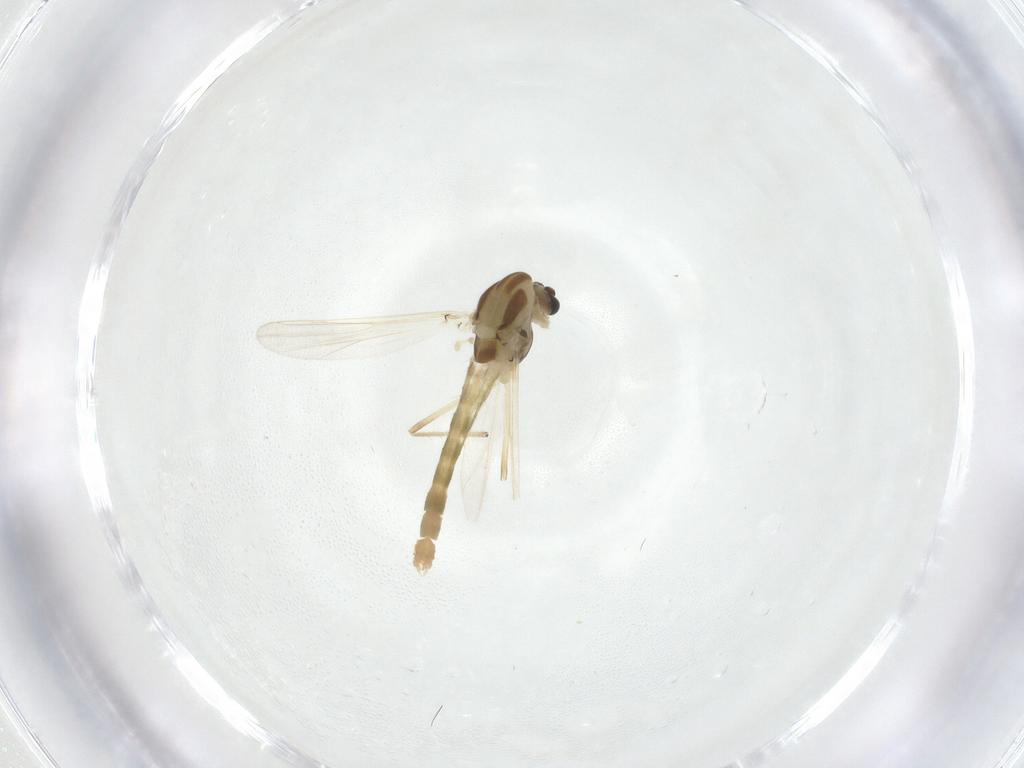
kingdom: Animalia
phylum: Arthropoda
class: Insecta
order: Diptera
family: Chironomidae
